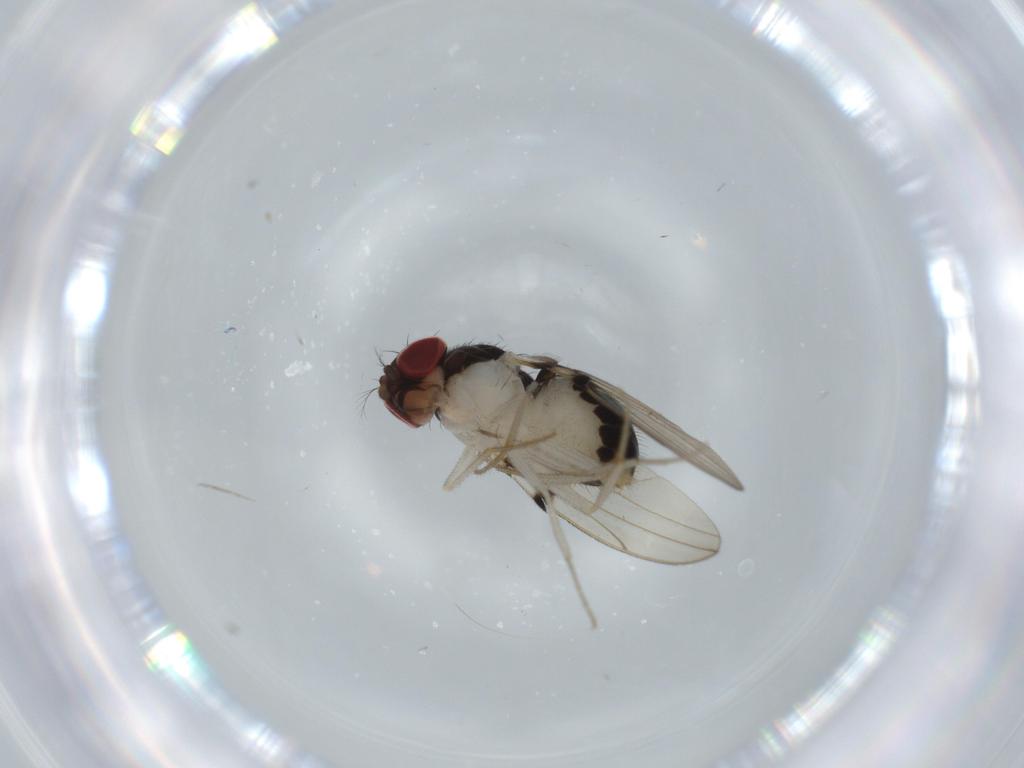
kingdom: Animalia
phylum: Arthropoda
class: Insecta
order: Diptera
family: Drosophilidae
